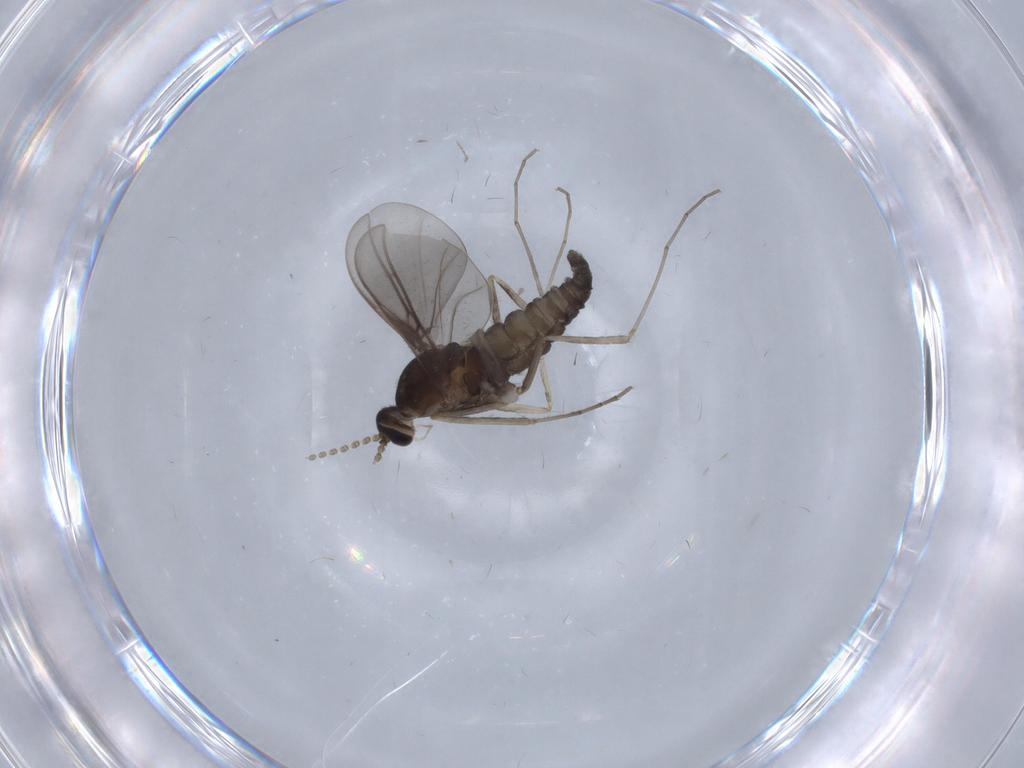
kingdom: Animalia
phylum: Arthropoda
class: Insecta
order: Diptera
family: Cecidomyiidae
